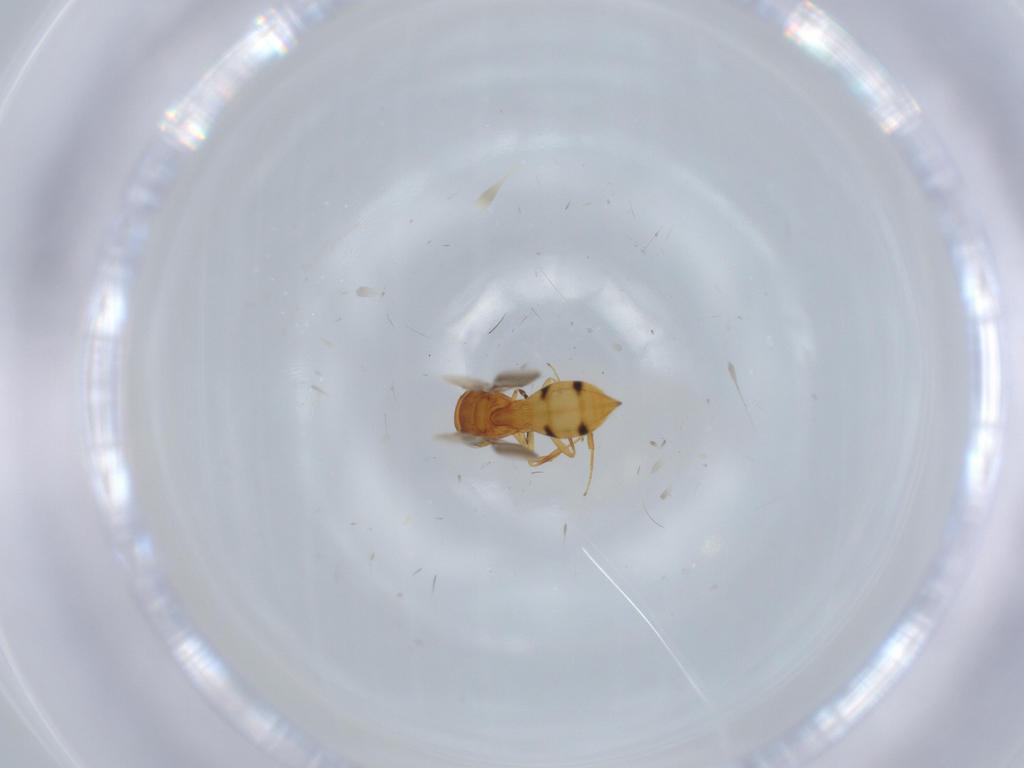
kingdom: Animalia
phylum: Arthropoda
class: Insecta
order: Hymenoptera
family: Scelionidae
